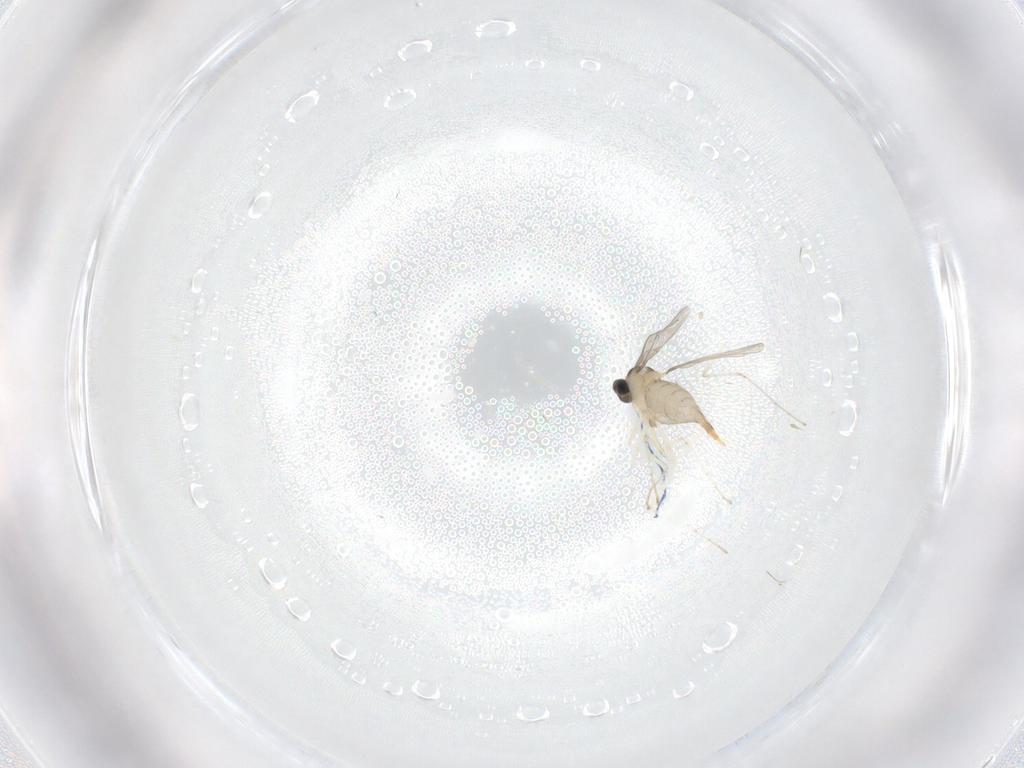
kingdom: Animalia
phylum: Arthropoda
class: Insecta
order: Diptera
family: Cecidomyiidae
